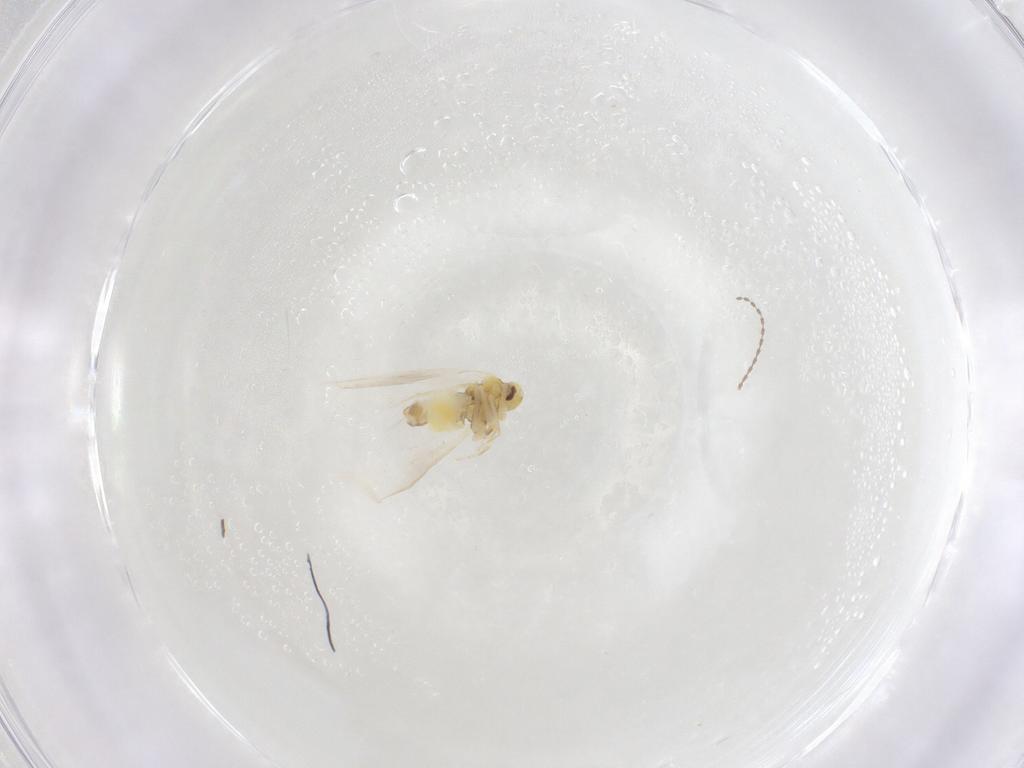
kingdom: Animalia
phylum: Arthropoda
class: Insecta
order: Hemiptera
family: Aleyrodidae
